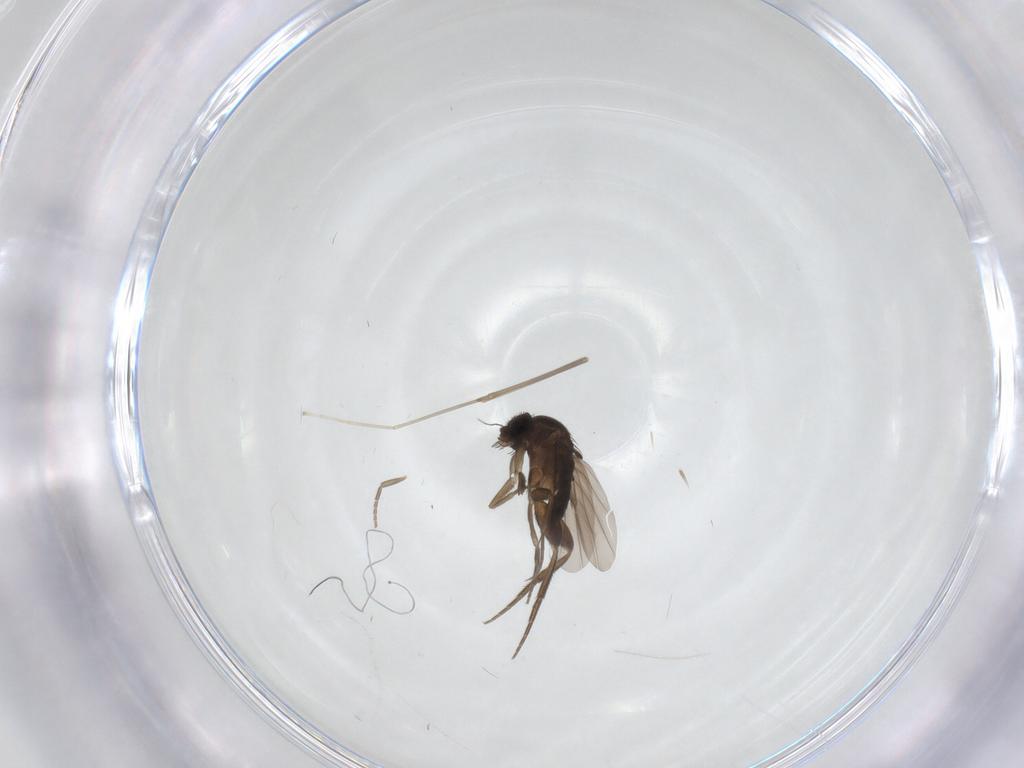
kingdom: Animalia
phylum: Arthropoda
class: Insecta
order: Diptera
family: Phoridae
